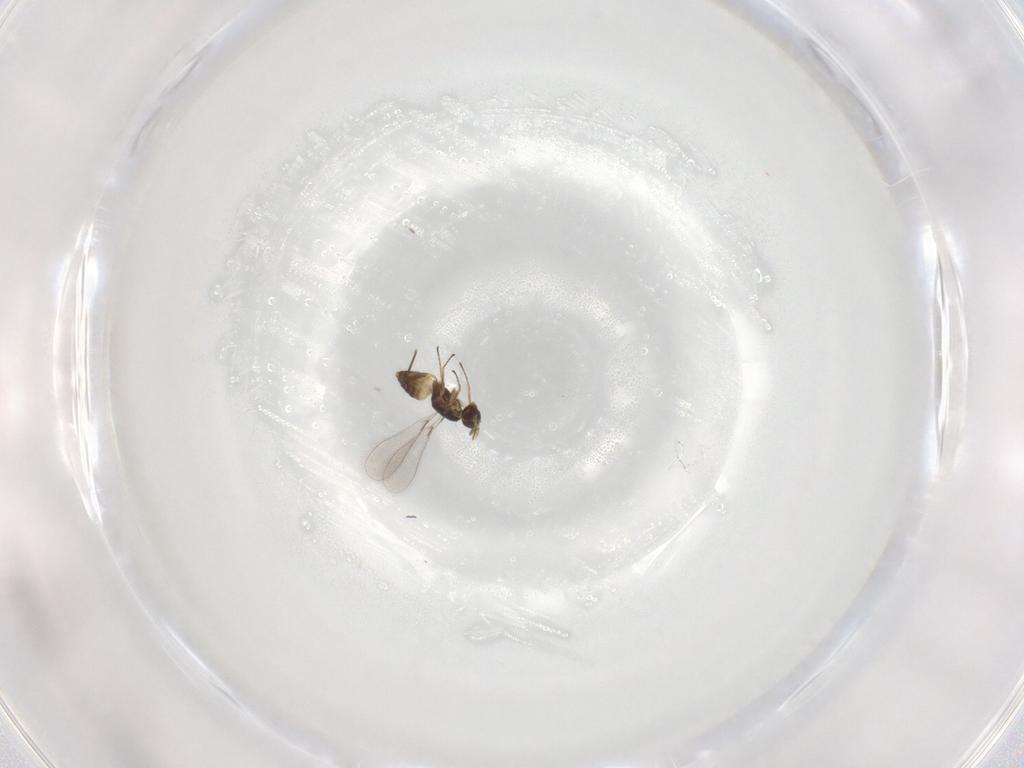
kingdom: Animalia
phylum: Arthropoda
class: Insecta
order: Hymenoptera
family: Mymaridae
